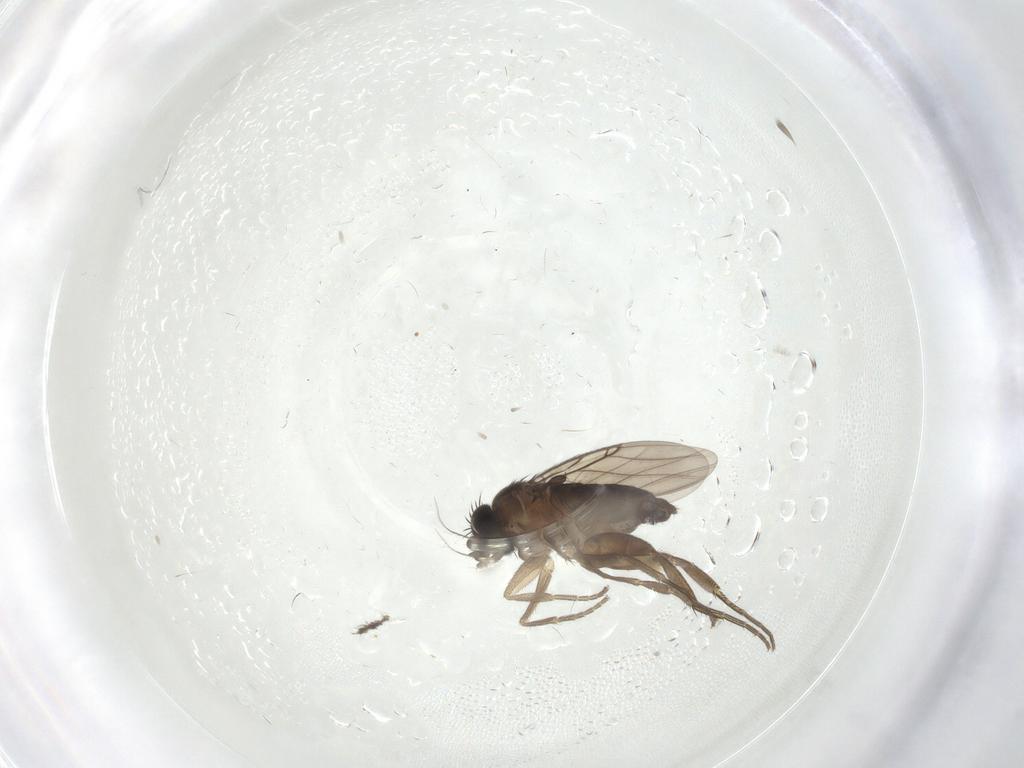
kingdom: Animalia
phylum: Arthropoda
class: Insecta
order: Diptera
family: Phoridae
